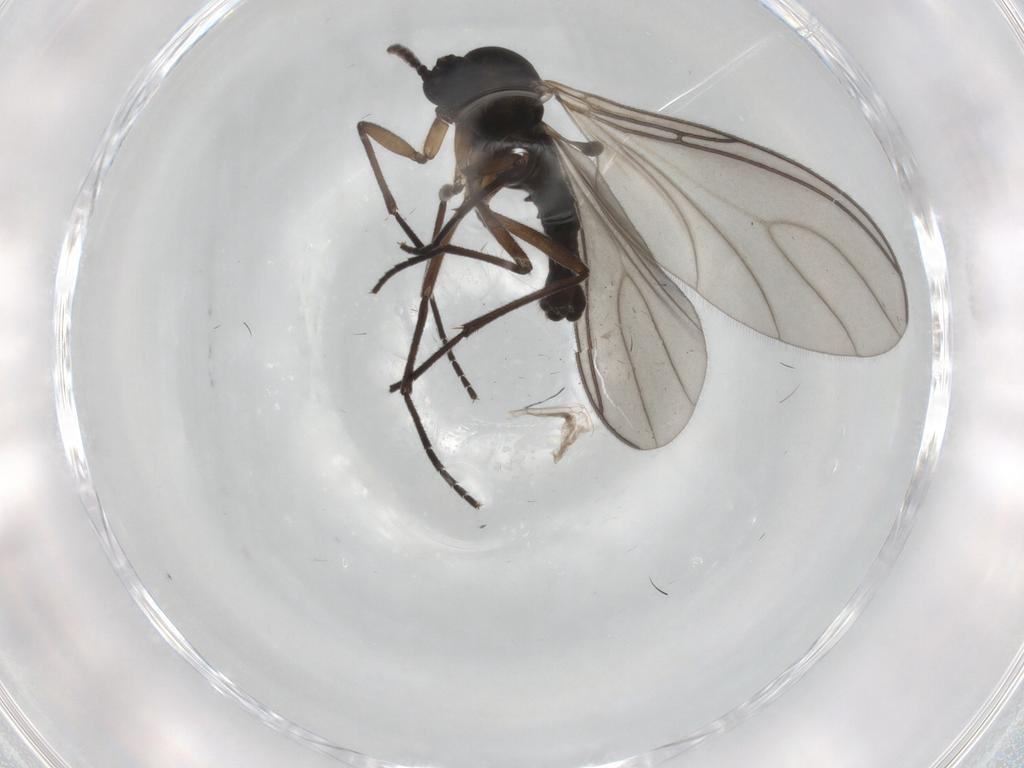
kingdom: Animalia
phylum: Arthropoda
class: Insecta
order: Diptera
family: Sciaridae
